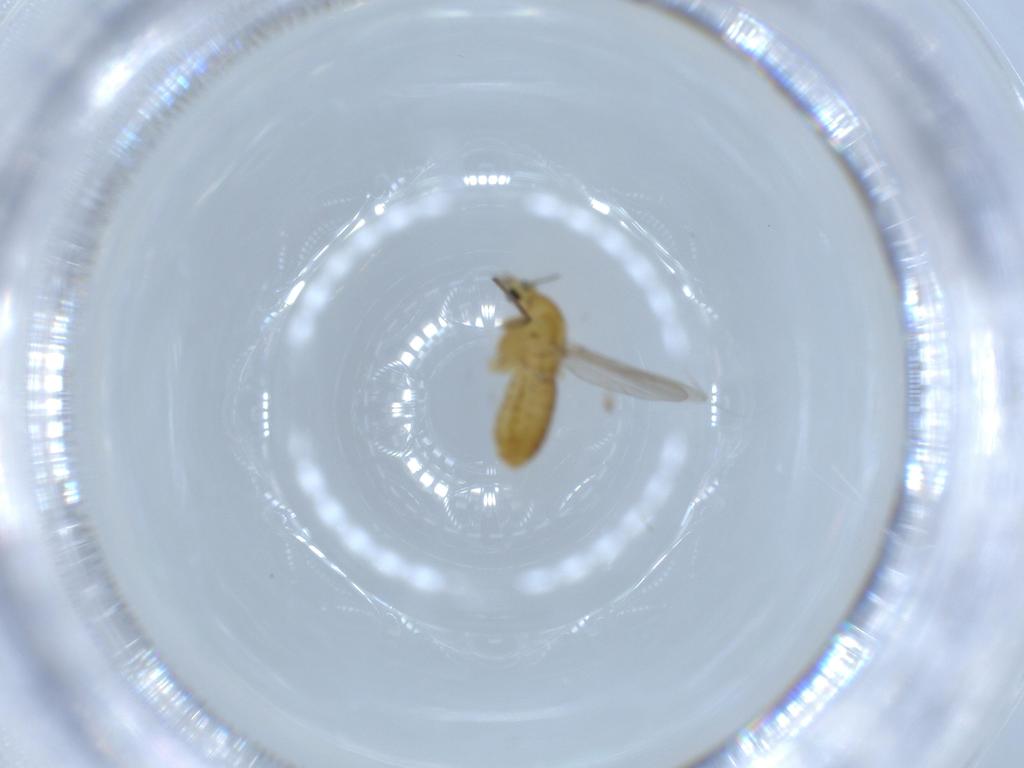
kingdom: Animalia
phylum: Arthropoda
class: Insecta
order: Diptera
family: Chironomidae
